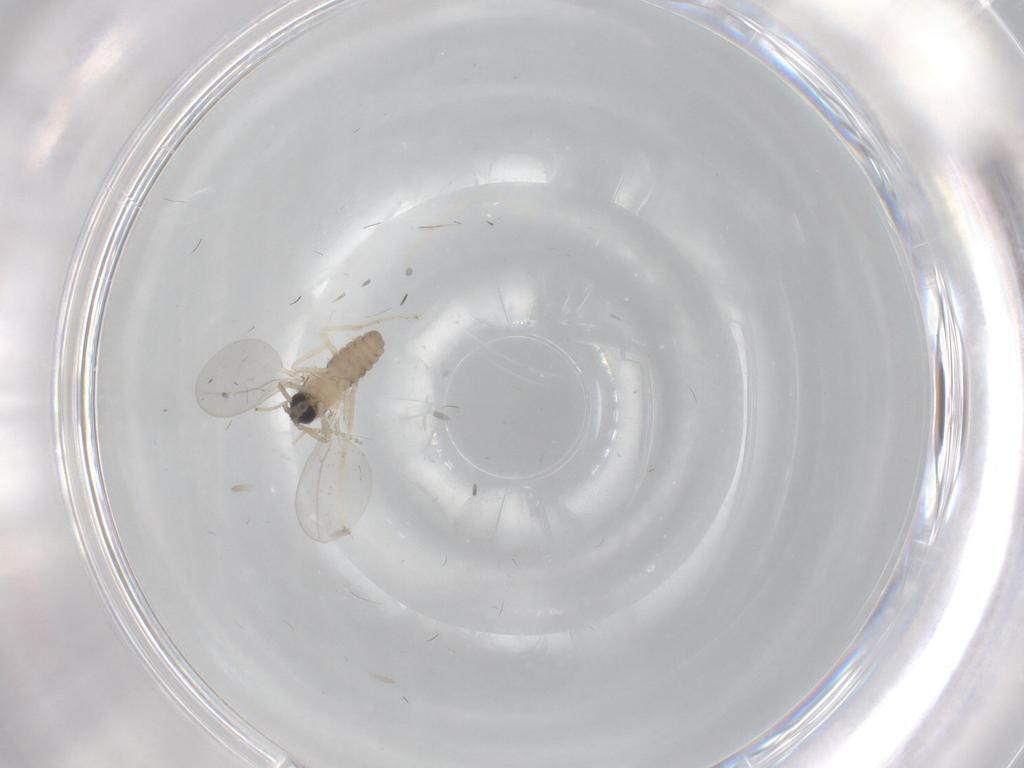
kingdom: Animalia
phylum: Arthropoda
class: Insecta
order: Diptera
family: Cecidomyiidae
